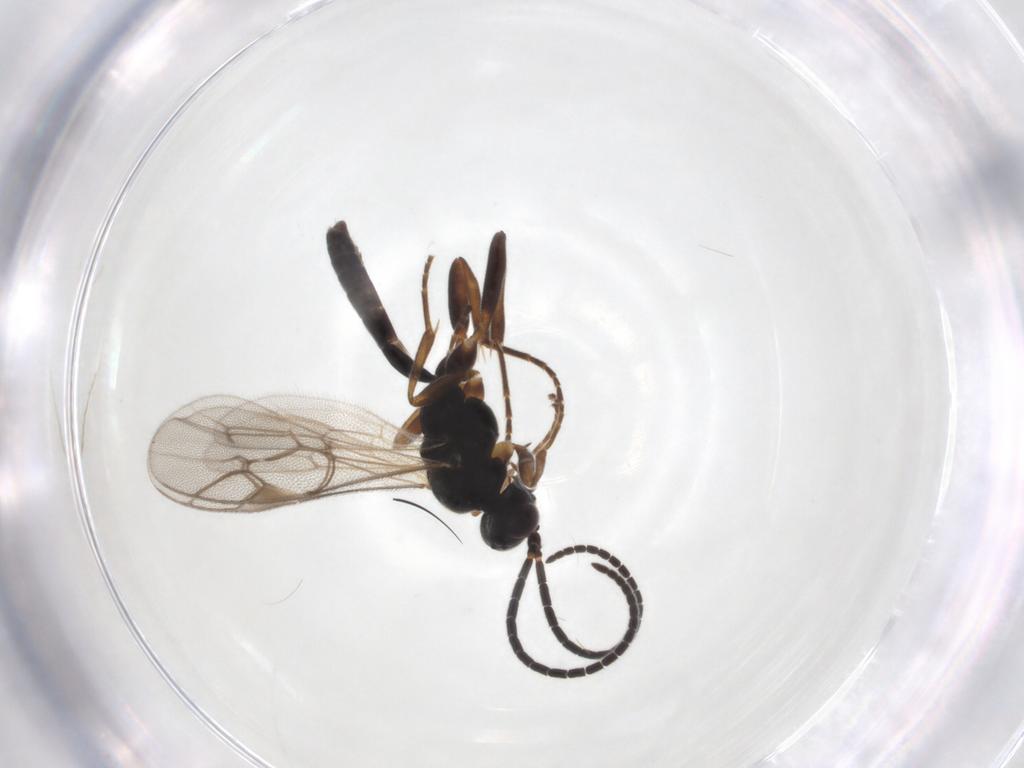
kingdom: Animalia
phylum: Arthropoda
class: Insecta
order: Hymenoptera
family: Ichneumonidae
